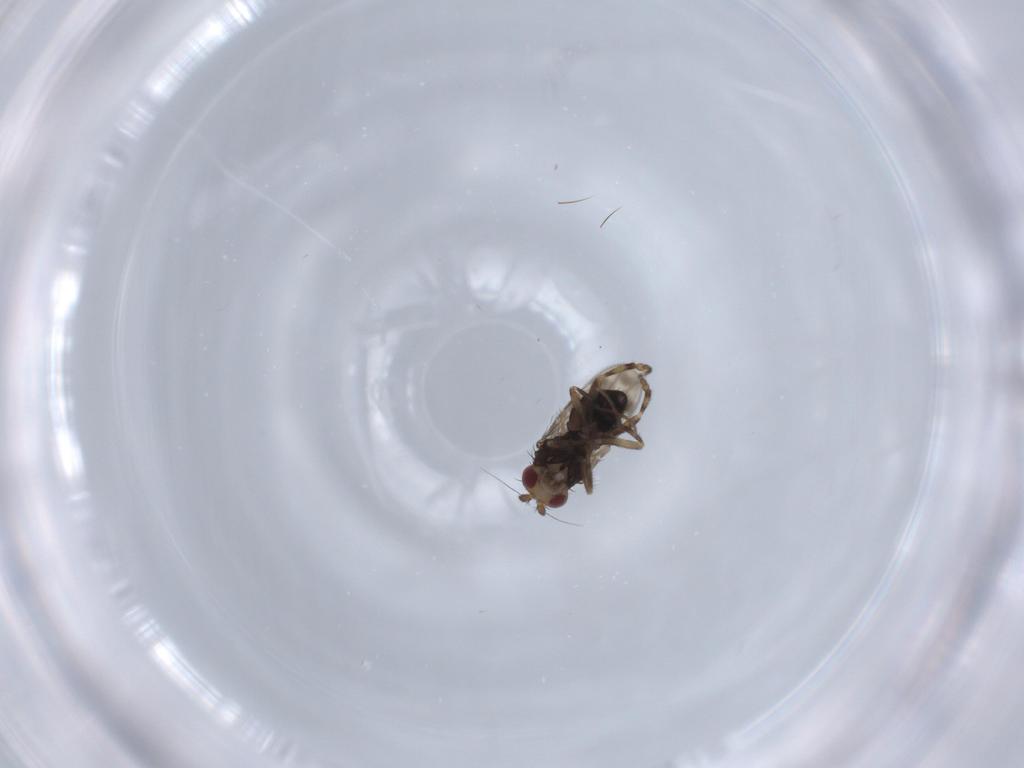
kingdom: Animalia
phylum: Arthropoda
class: Insecta
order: Diptera
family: Sphaeroceridae
